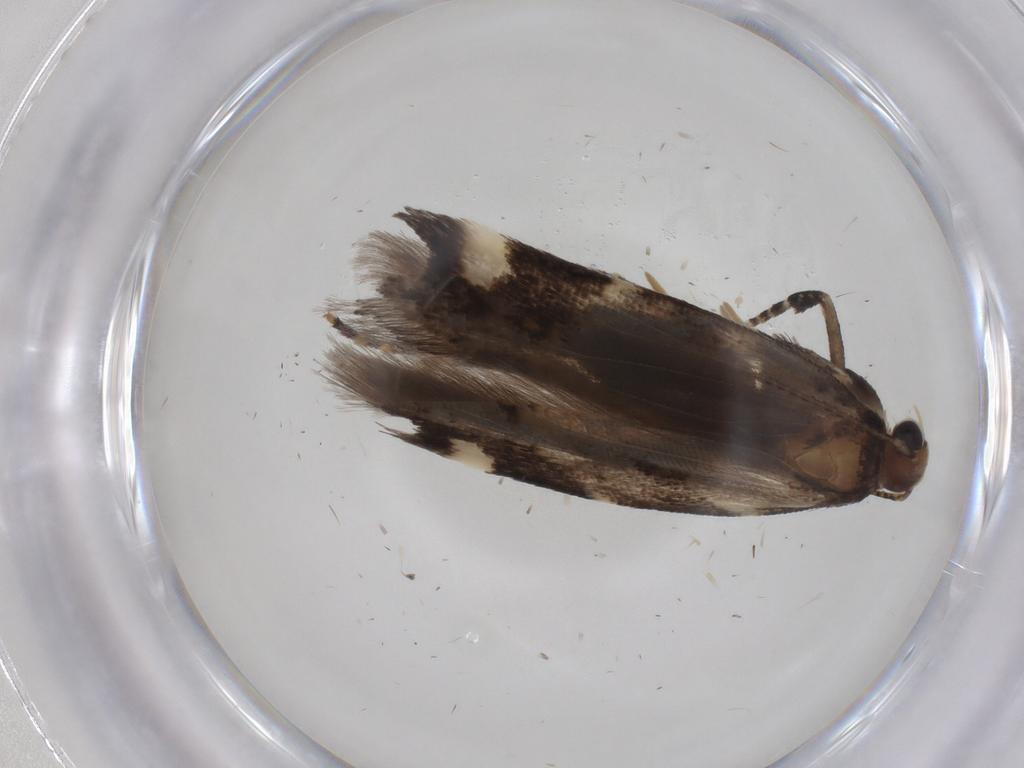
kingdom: Animalia
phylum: Arthropoda
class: Insecta
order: Lepidoptera
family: Gelechiidae
